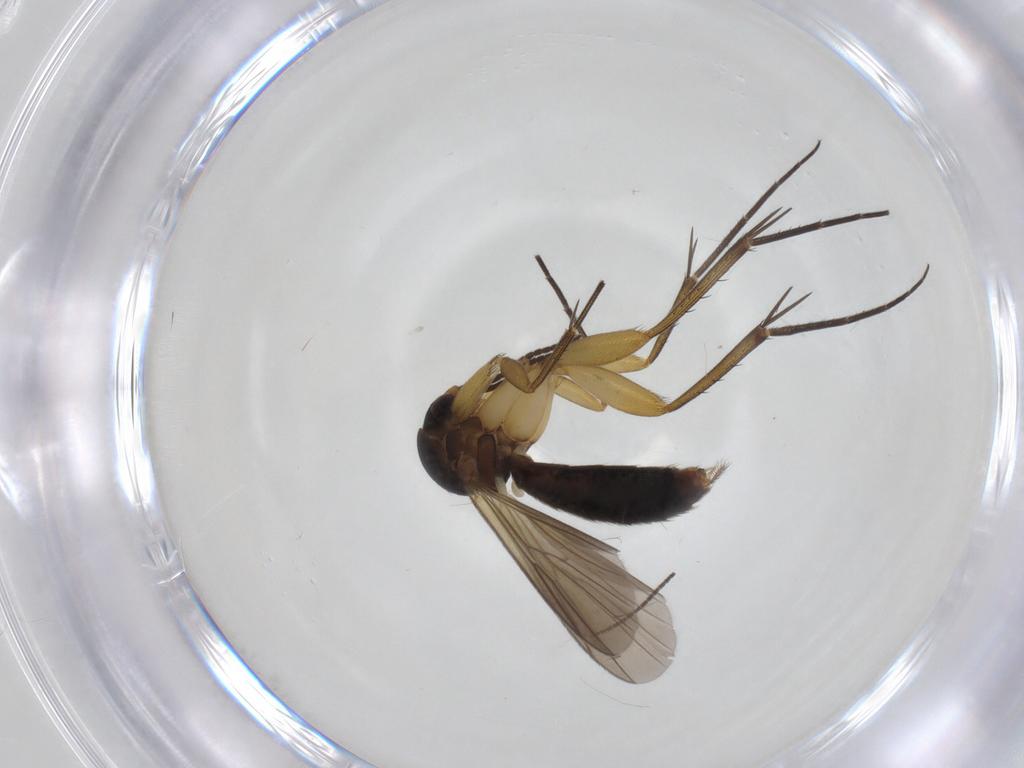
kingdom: Animalia
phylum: Arthropoda
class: Insecta
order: Diptera
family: Mycetophilidae
